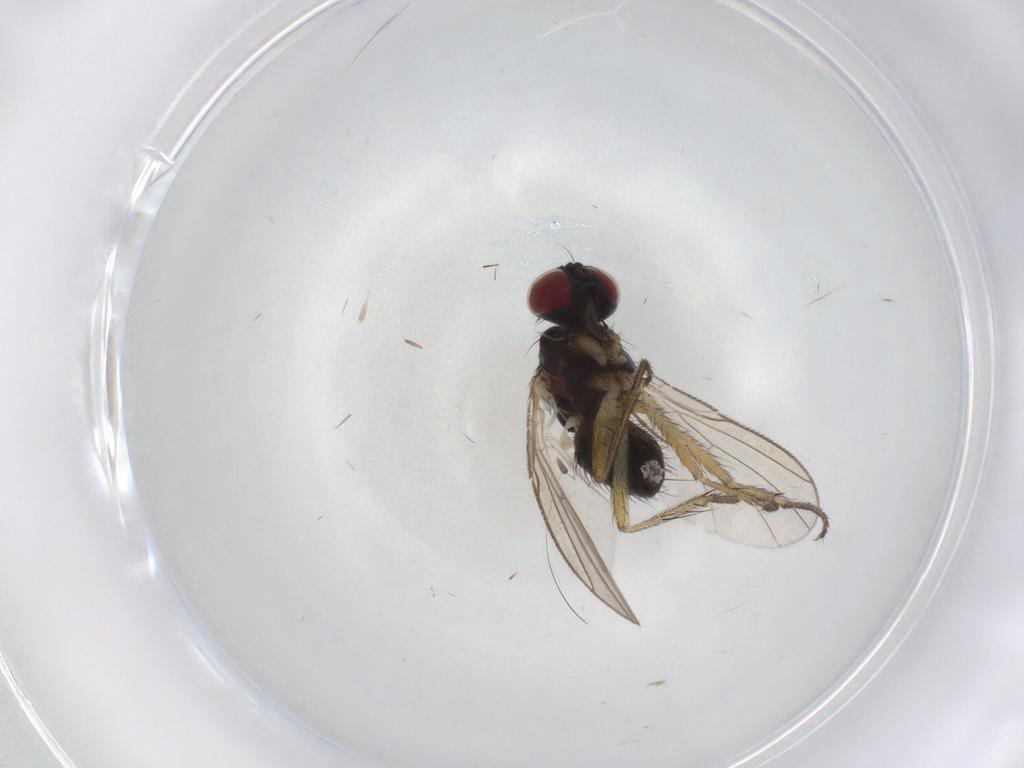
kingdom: Animalia
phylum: Arthropoda
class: Insecta
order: Diptera
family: Muscidae
